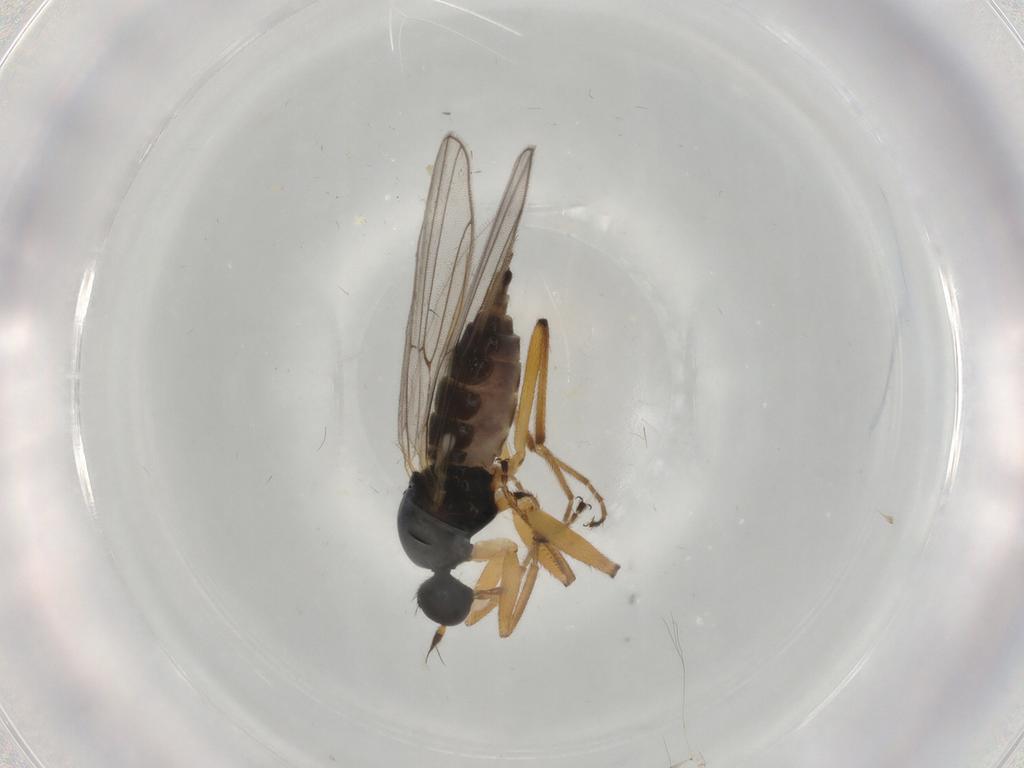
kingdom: Animalia
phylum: Arthropoda
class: Insecta
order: Diptera
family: Hybotidae
